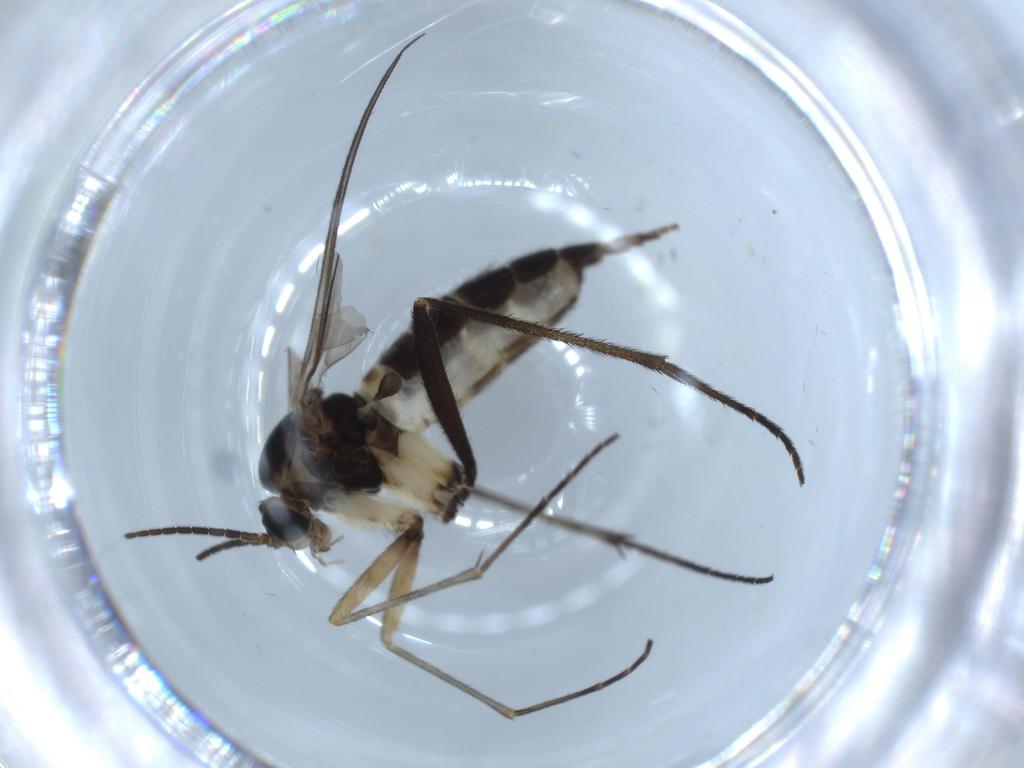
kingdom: Animalia
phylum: Arthropoda
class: Insecta
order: Diptera
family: Sciaridae
